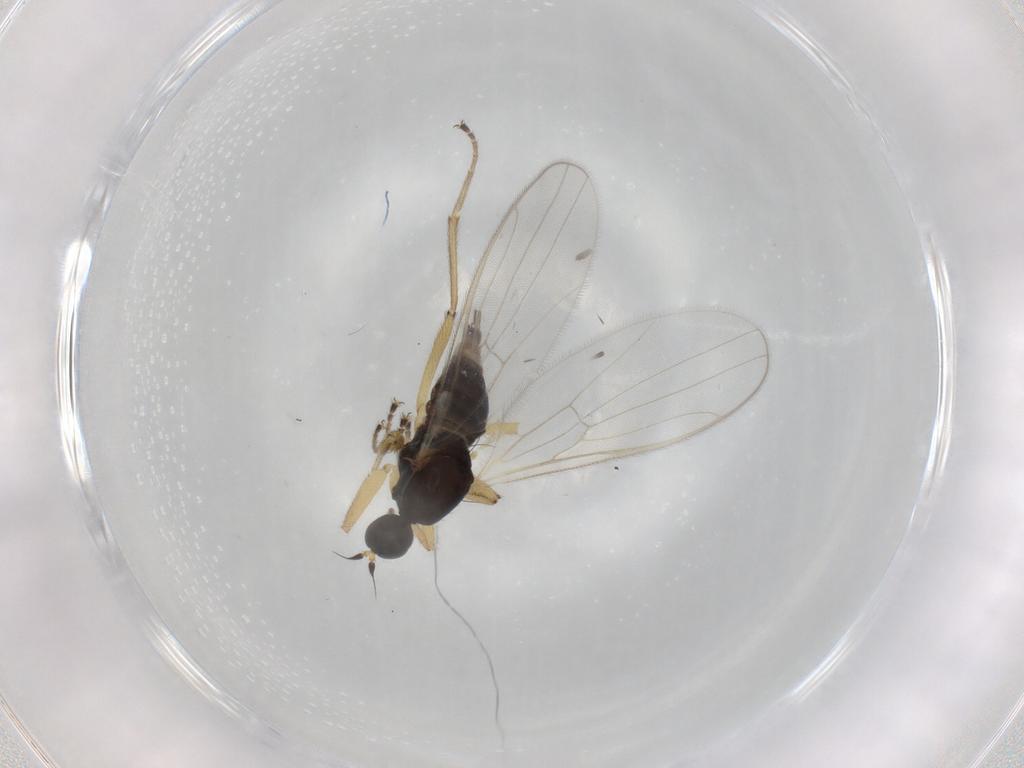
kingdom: Animalia
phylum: Arthropoda
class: Insecta
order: Diptera
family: Hybotidae
